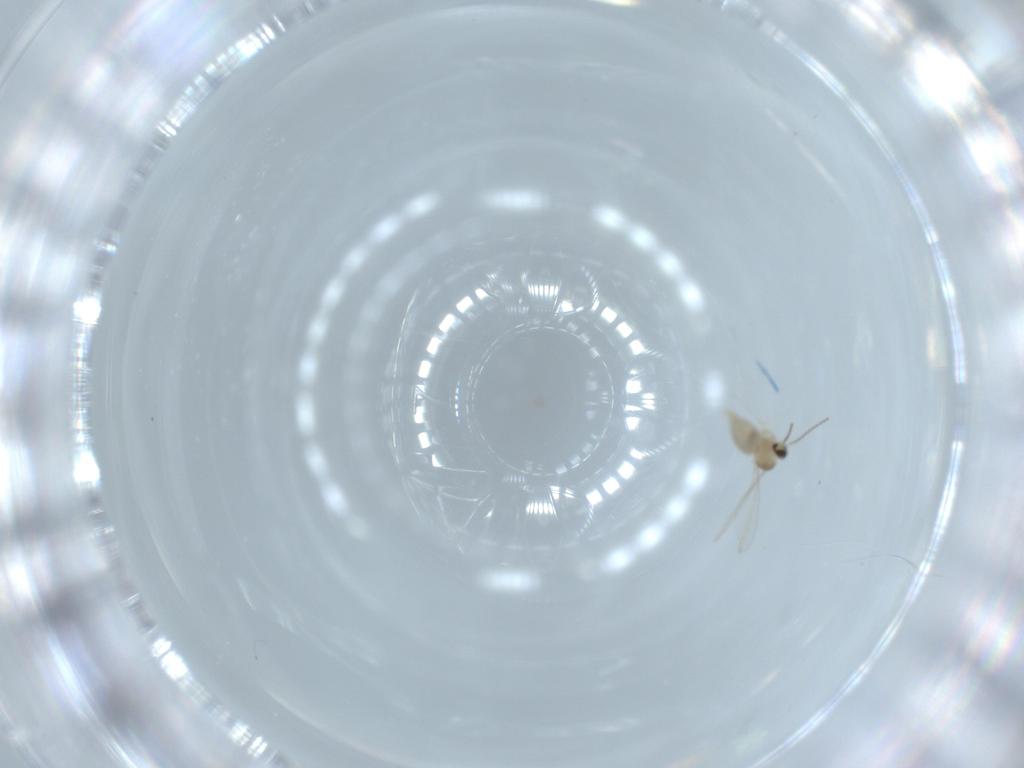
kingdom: Animalia
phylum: Arthropoda
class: Insecta
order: Diptera
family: Cecidomyiidae
